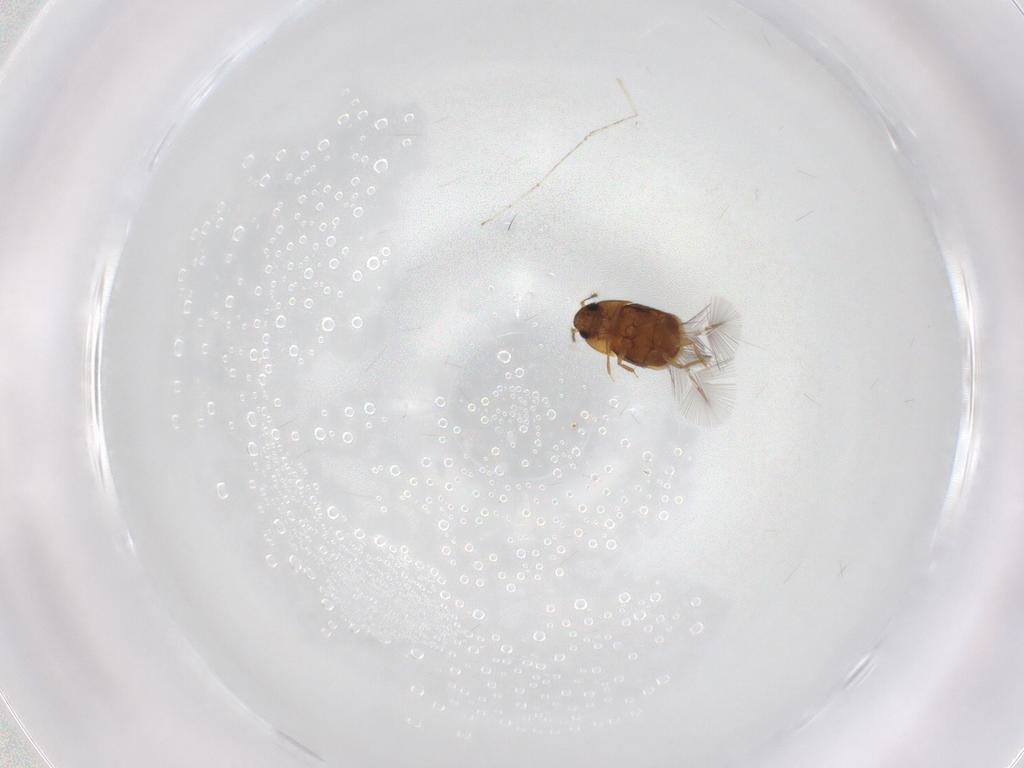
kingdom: Animalia
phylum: Arthropoda
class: Insecta
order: Coleoptera
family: Ptiliidae
